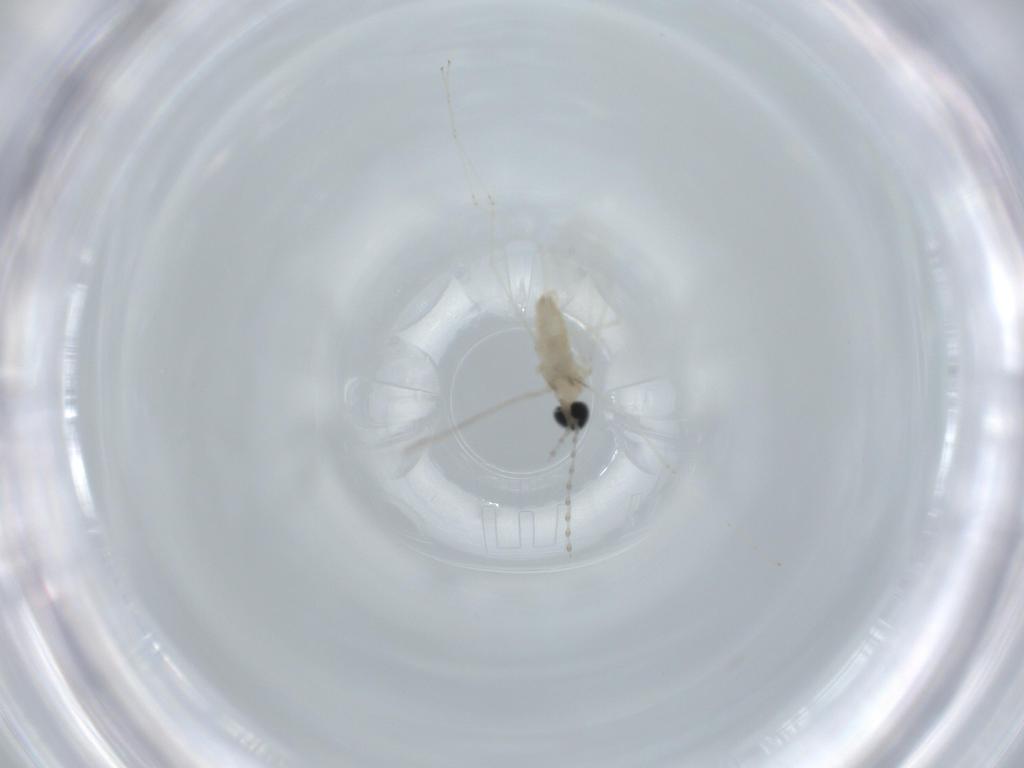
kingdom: Animalia
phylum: Arthropoda
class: Insecta
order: Diptera
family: Cecidomyiidae
